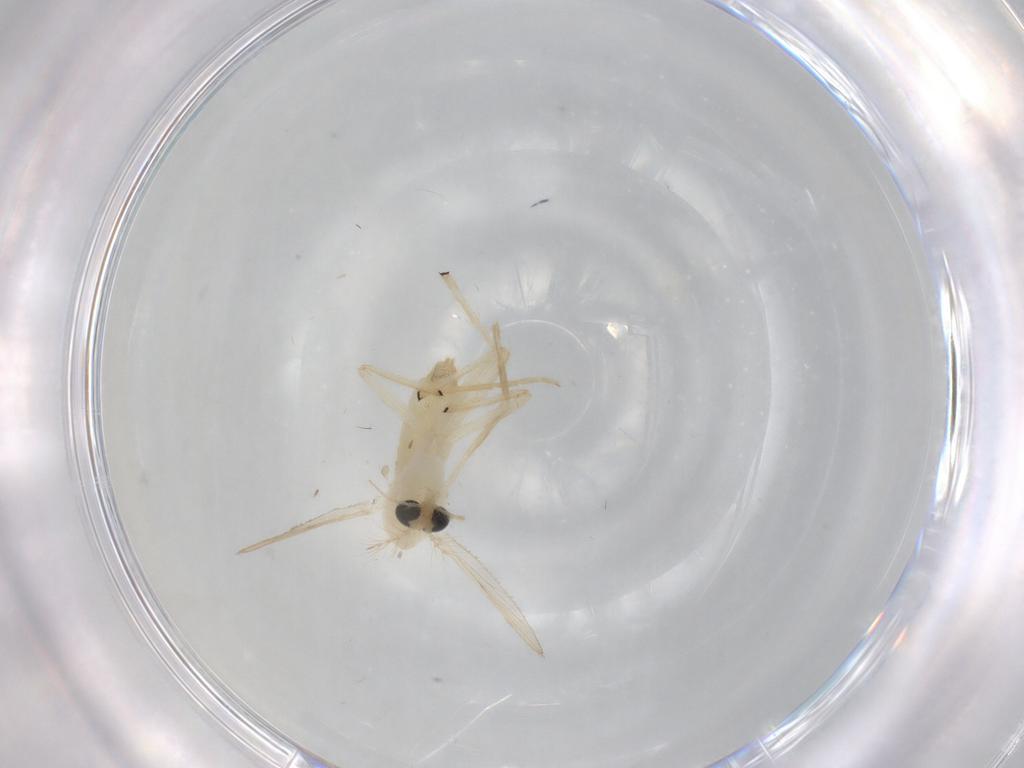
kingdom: Animalia
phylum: Arthropoda
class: Insecta
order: Diptera
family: Chironomidae
